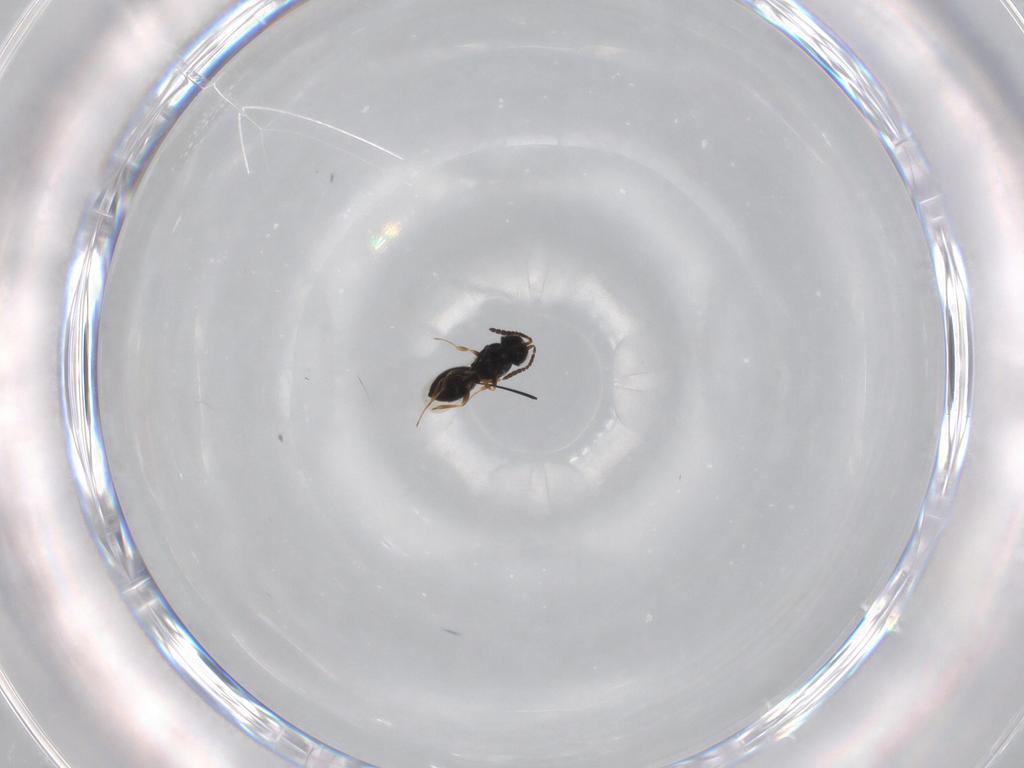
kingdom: Animalia
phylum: Arthropoda
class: Insecta
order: Hymenoptera
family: Scelionidae
